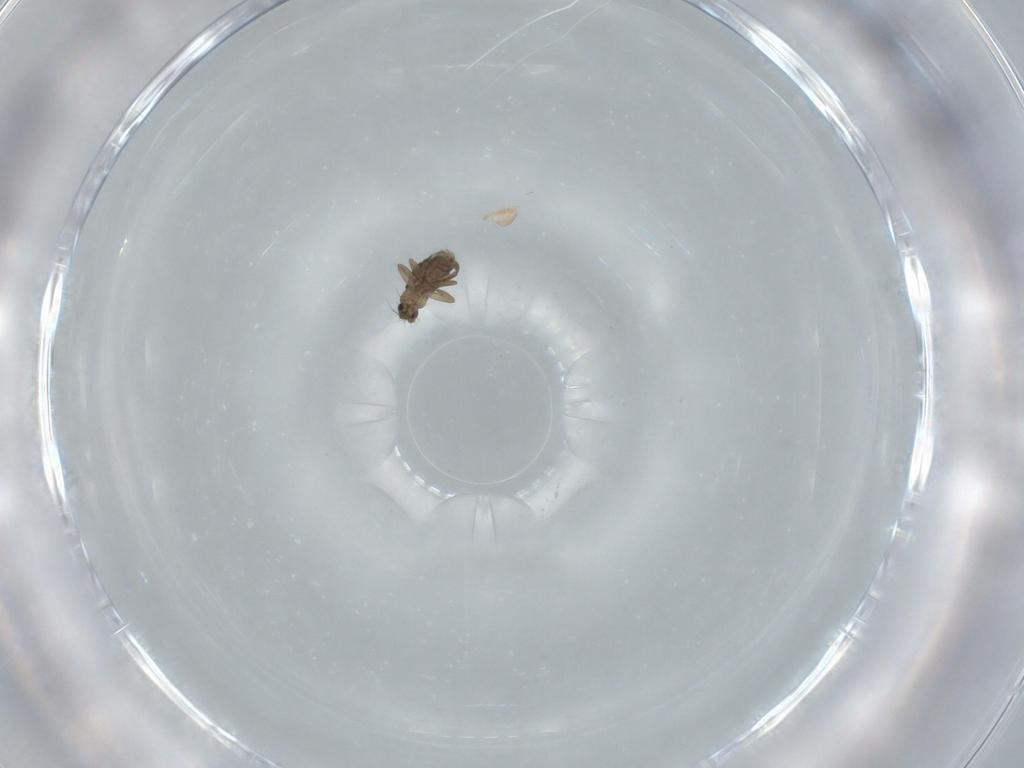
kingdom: Animalia
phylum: Arthropoda
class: Insecta
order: Diptera
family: Phoridae
